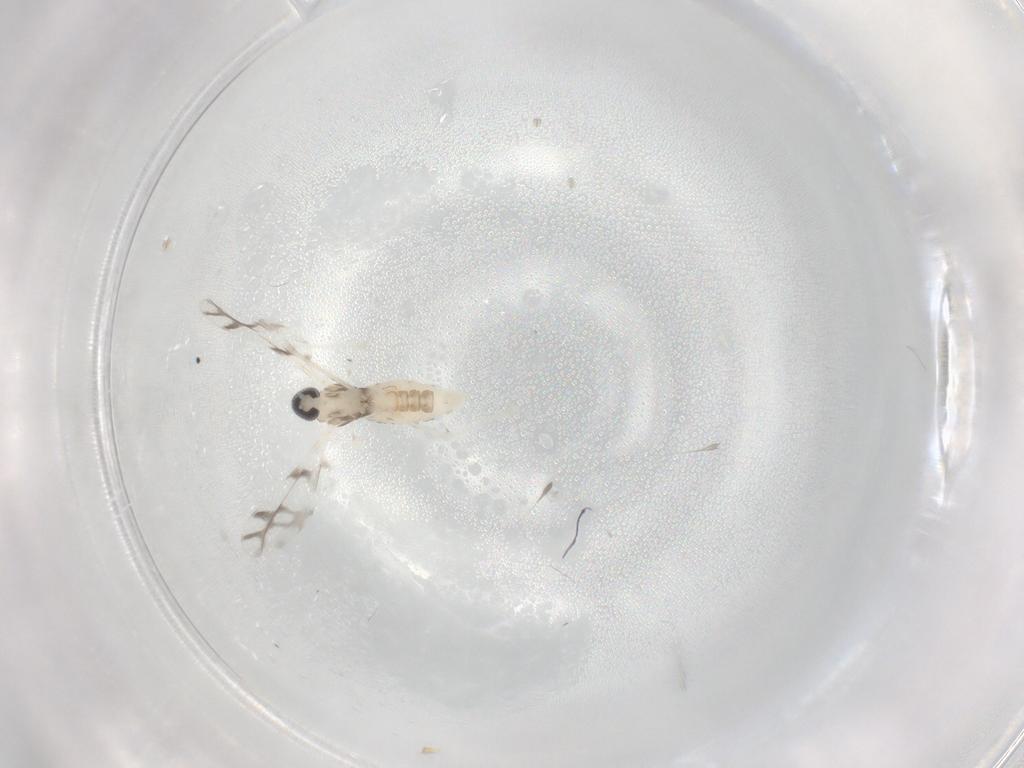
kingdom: Animalia
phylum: Arthropoda
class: Insecta
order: Diptera
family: Cecidomyiidae
